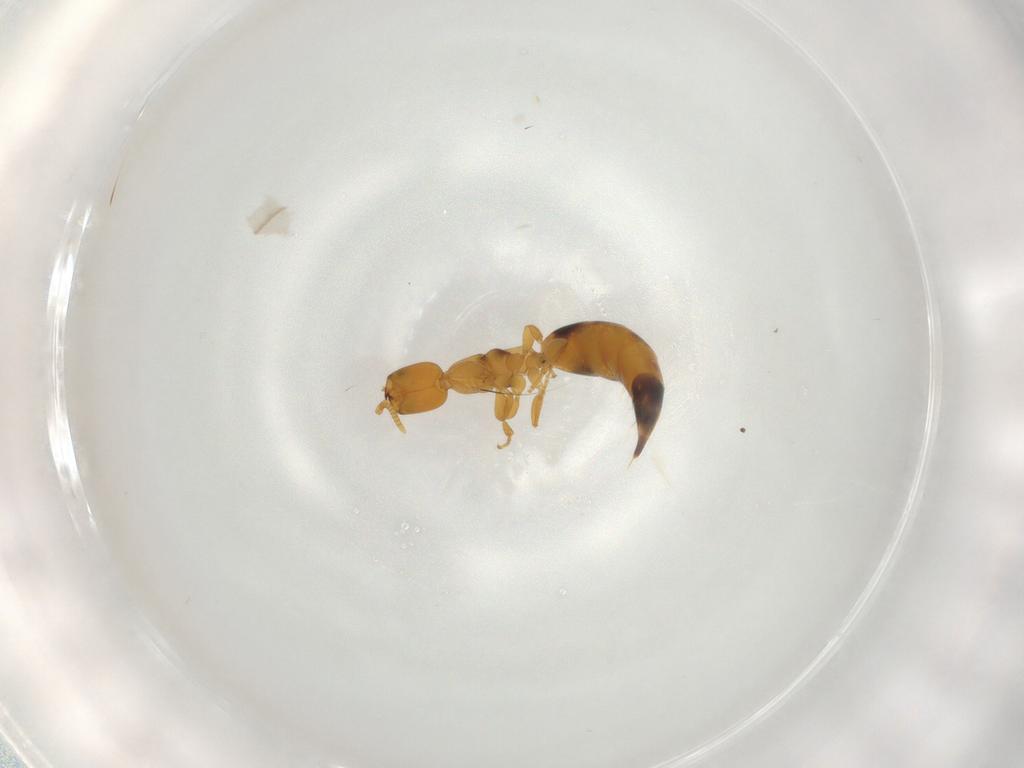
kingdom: Animalia
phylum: Arthropoda
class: Insecta
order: Hymenoptera
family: Bethylidae
